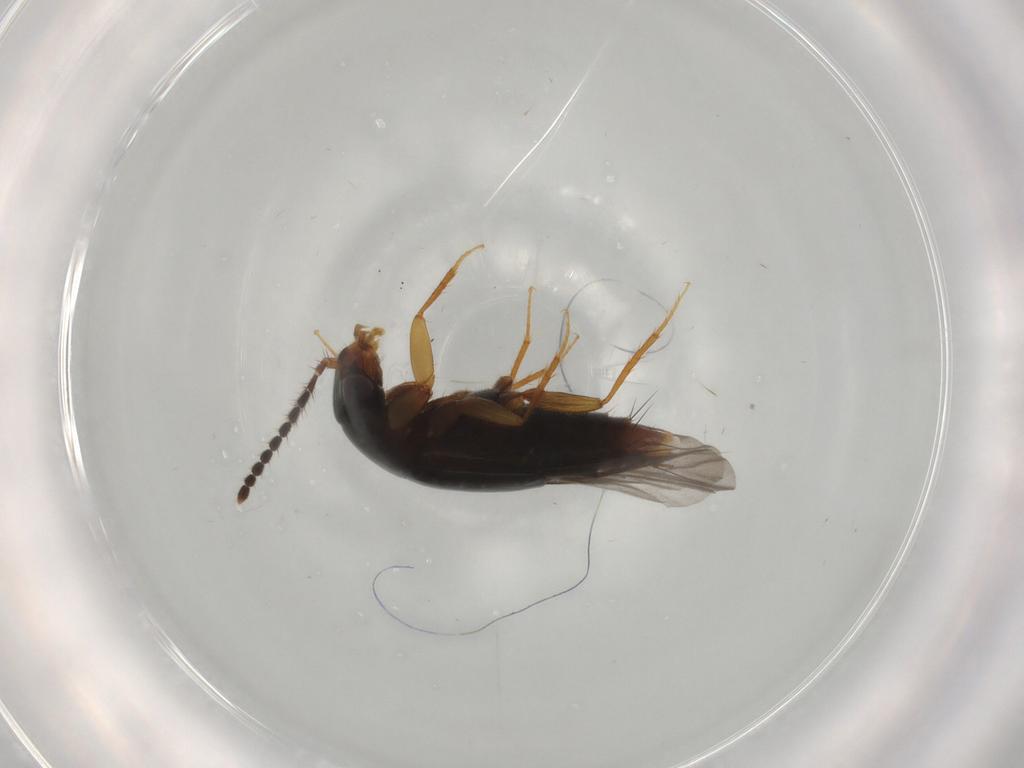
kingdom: Animalia
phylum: Arthropoda
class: Insecta
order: Coleoptera
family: Staphylinidae
